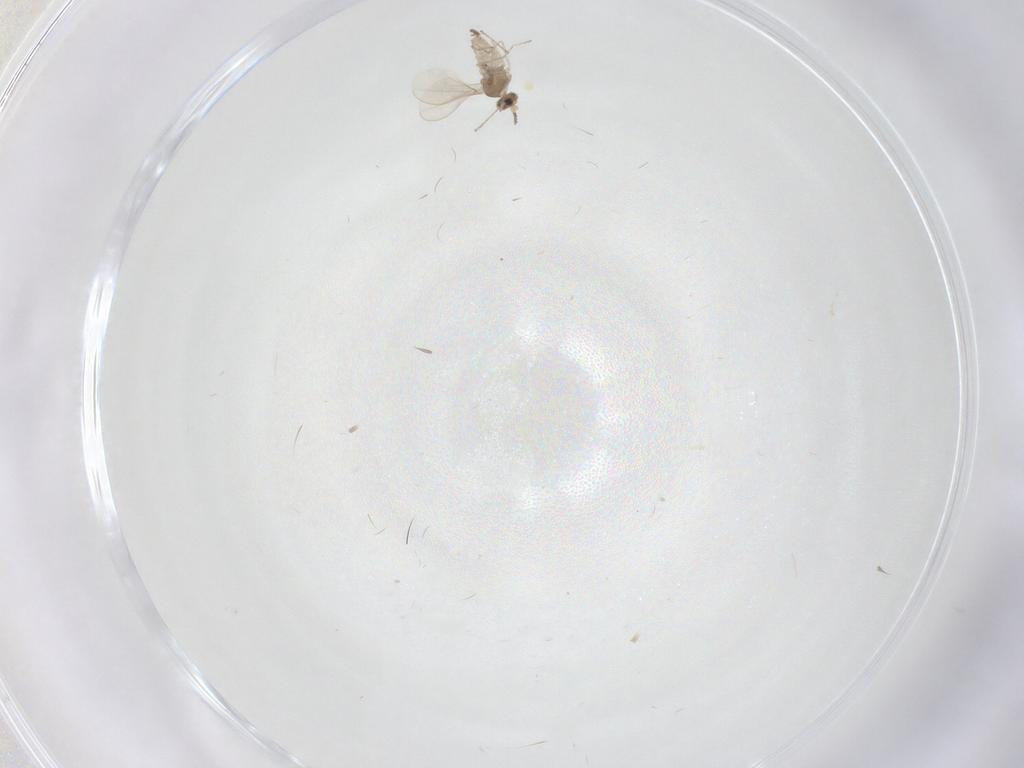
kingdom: Animalia
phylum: Arthropoda
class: Insecta
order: Diptera
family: Cecidomyiidae
